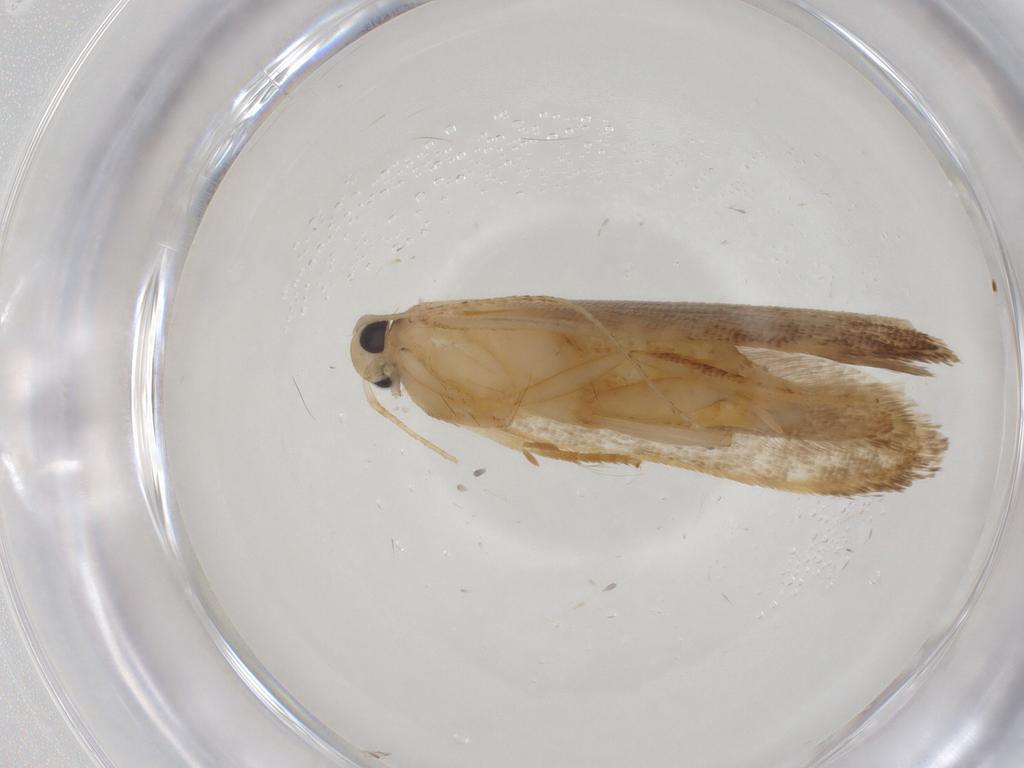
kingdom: Animalia
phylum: Arthropoda
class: Insecta
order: Lepidoptera
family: Gelechiidae
